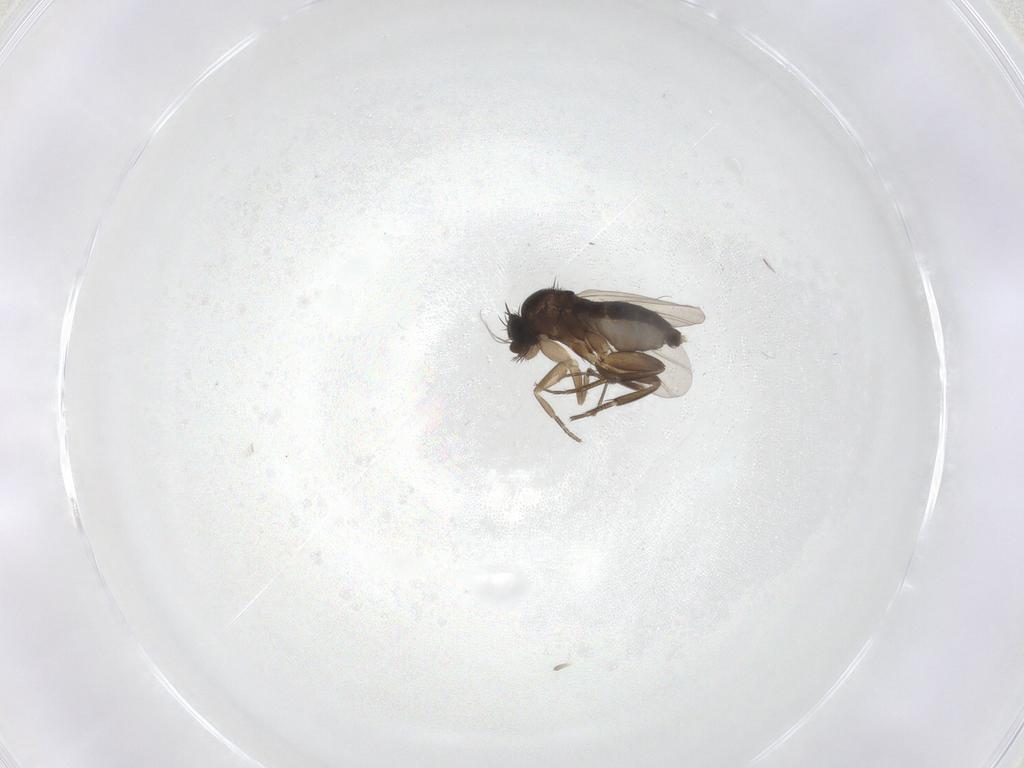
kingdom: Animalia
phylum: Arthropoda
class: Insecta
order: Diptera
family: Phoridae
